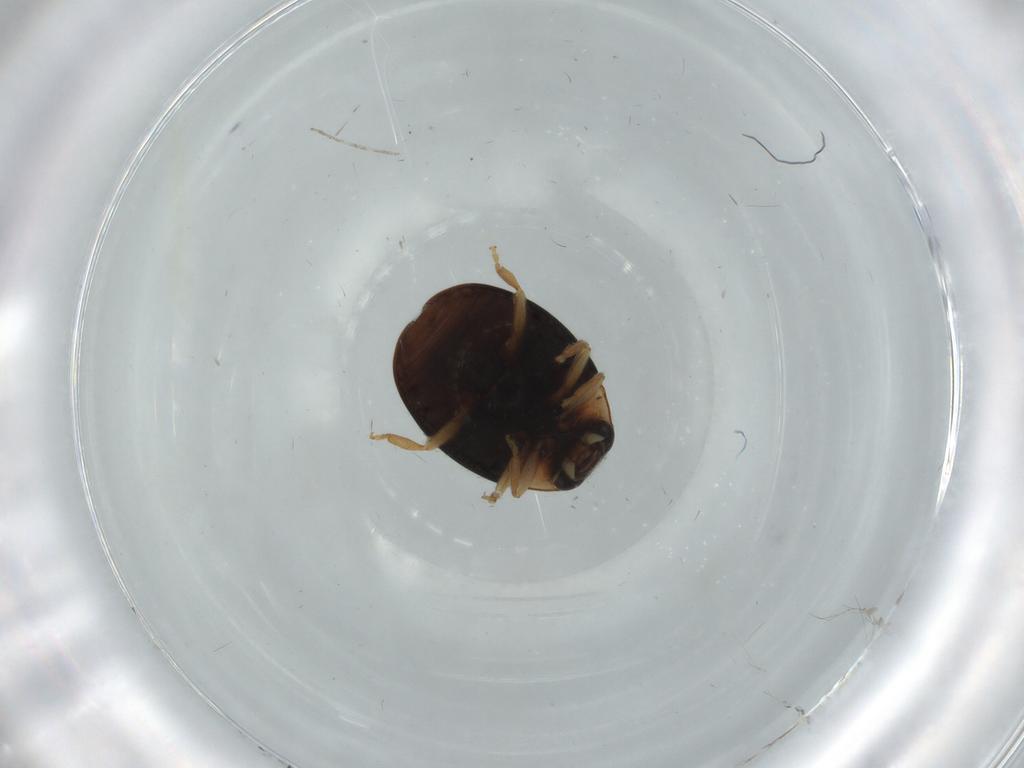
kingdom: Animalia
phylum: Arthropoda
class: Insecta
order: Coleoptera
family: Coccinellidae
